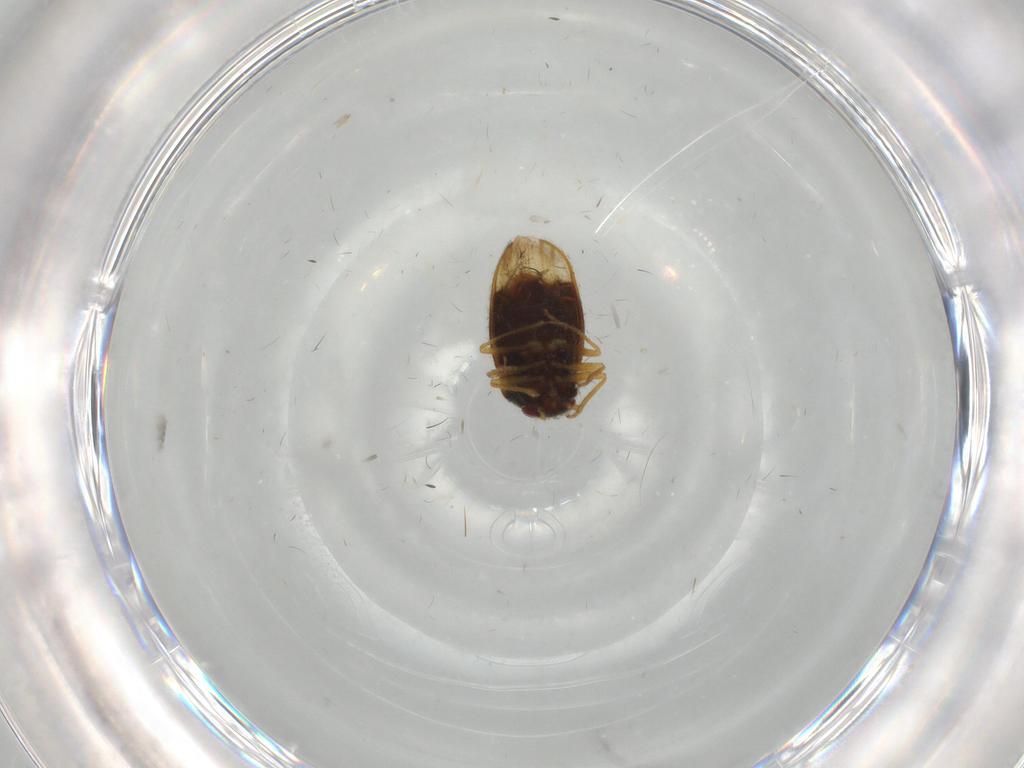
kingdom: Animalia
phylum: Arthropoda
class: Insecta
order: Hemiptera
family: Schizopteridae
